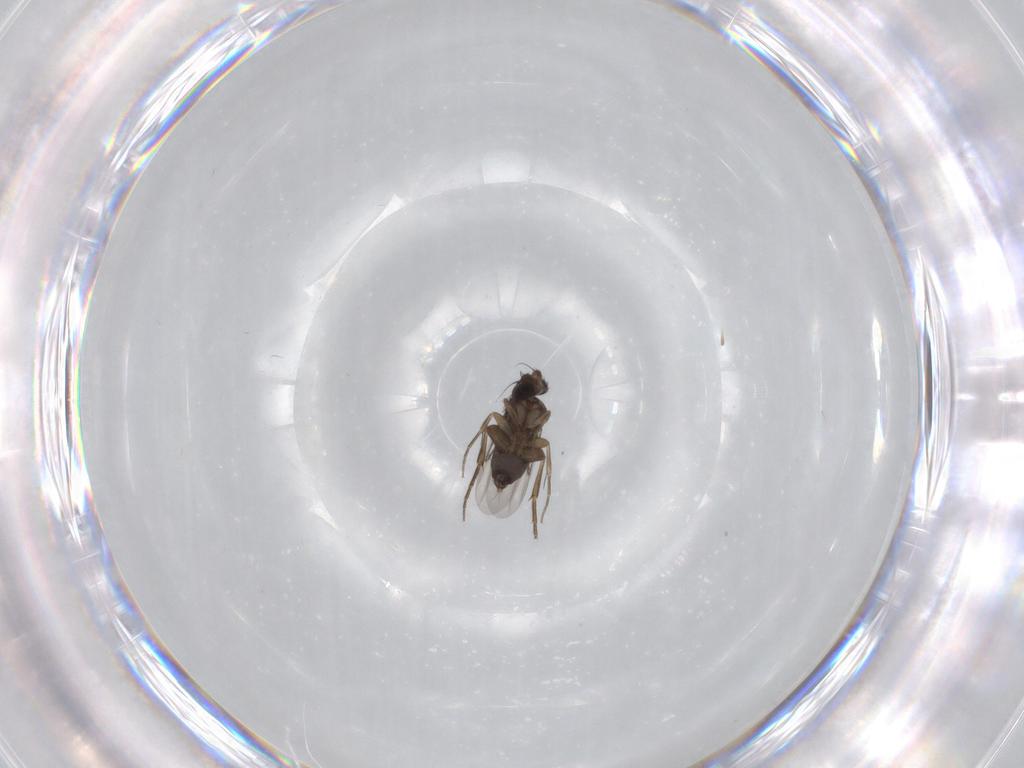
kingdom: Animalia
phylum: Arthropoda
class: Insecta
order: Diptera
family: Phoridae
